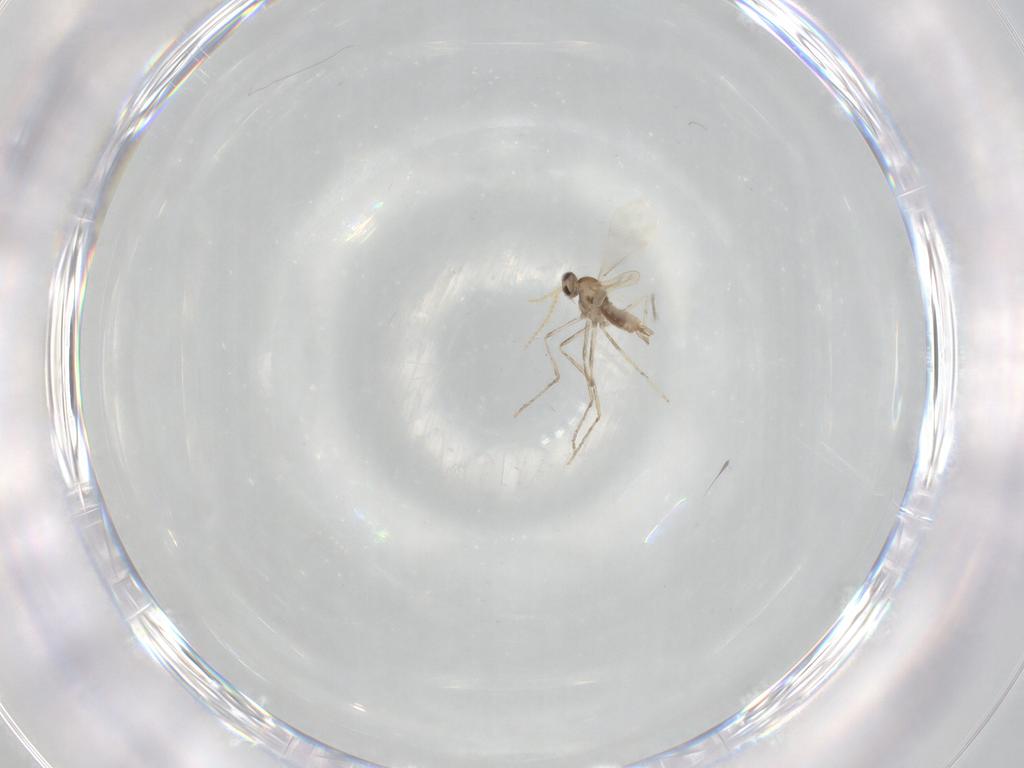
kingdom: Animalia
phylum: Arthropoda
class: Insecta
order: Diptera
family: Cecidomyiidae
